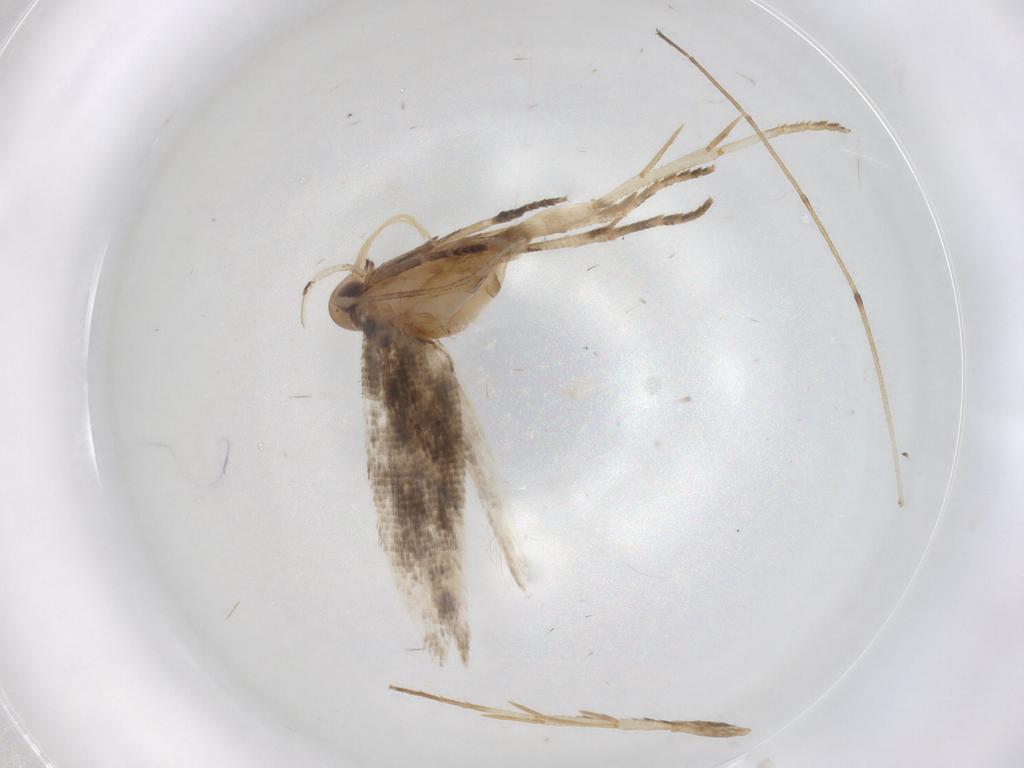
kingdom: Animalia
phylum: Arthropoda
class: Insecta
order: Lepidoptera
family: Cosmopterigidae
